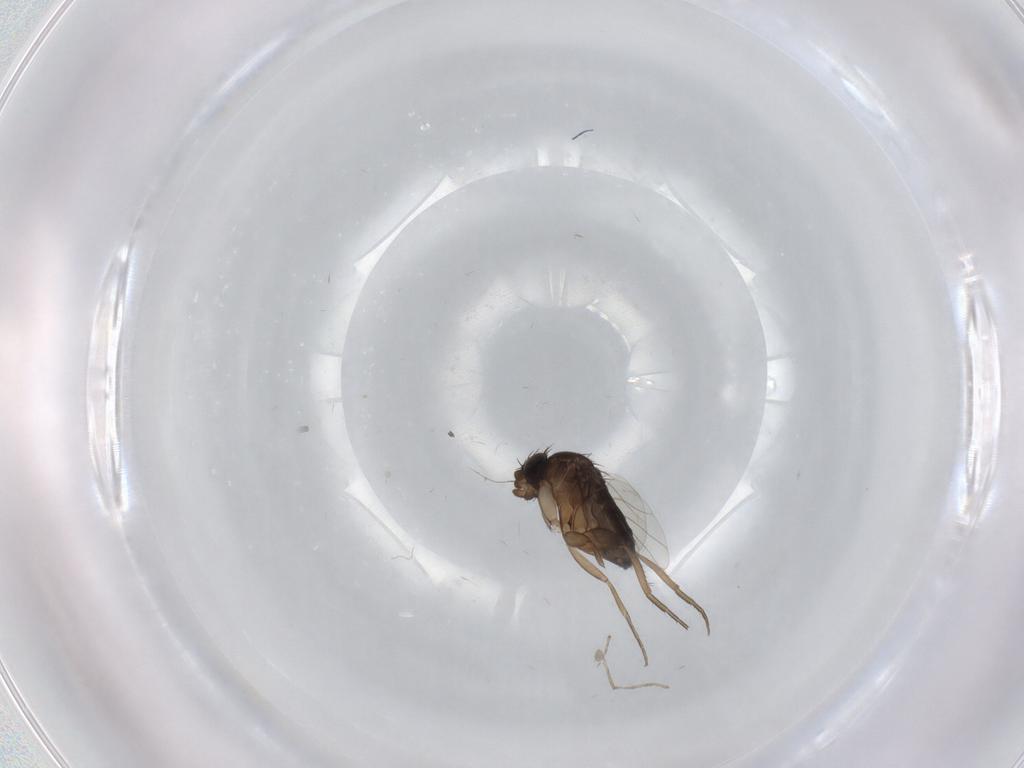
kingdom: Animalia
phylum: Arthropoda
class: Insecta
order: Diptera
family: Phoridae
